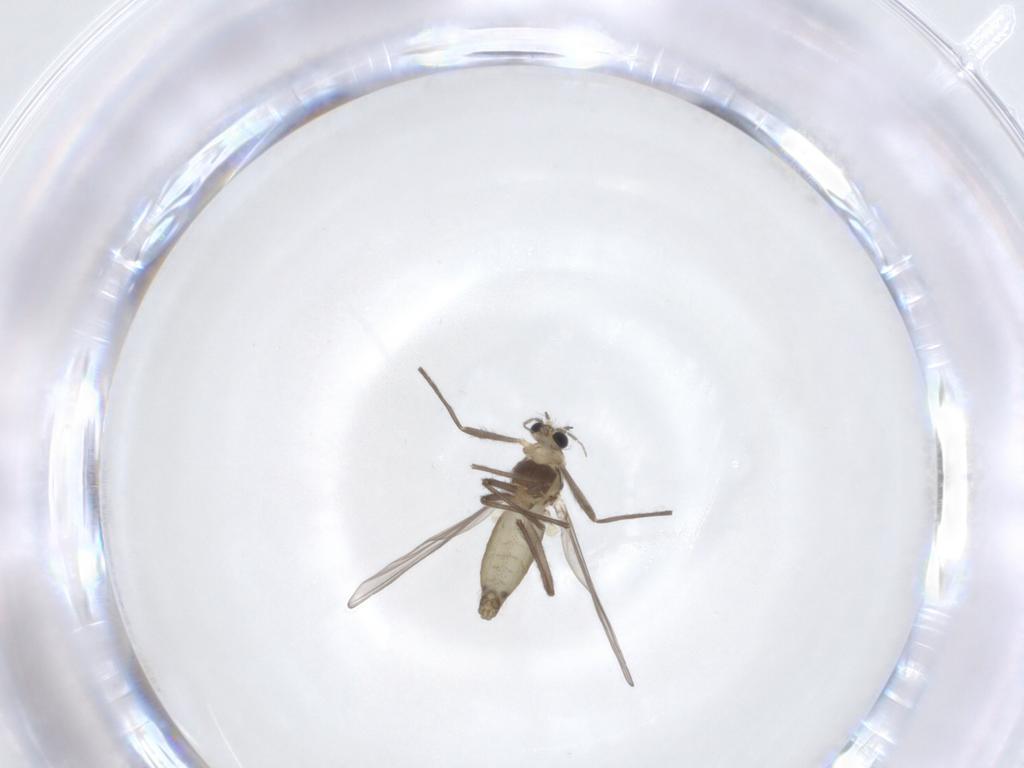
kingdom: Animalia
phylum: Arthropoda
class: Insecta
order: Diptera
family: Chironomidae
